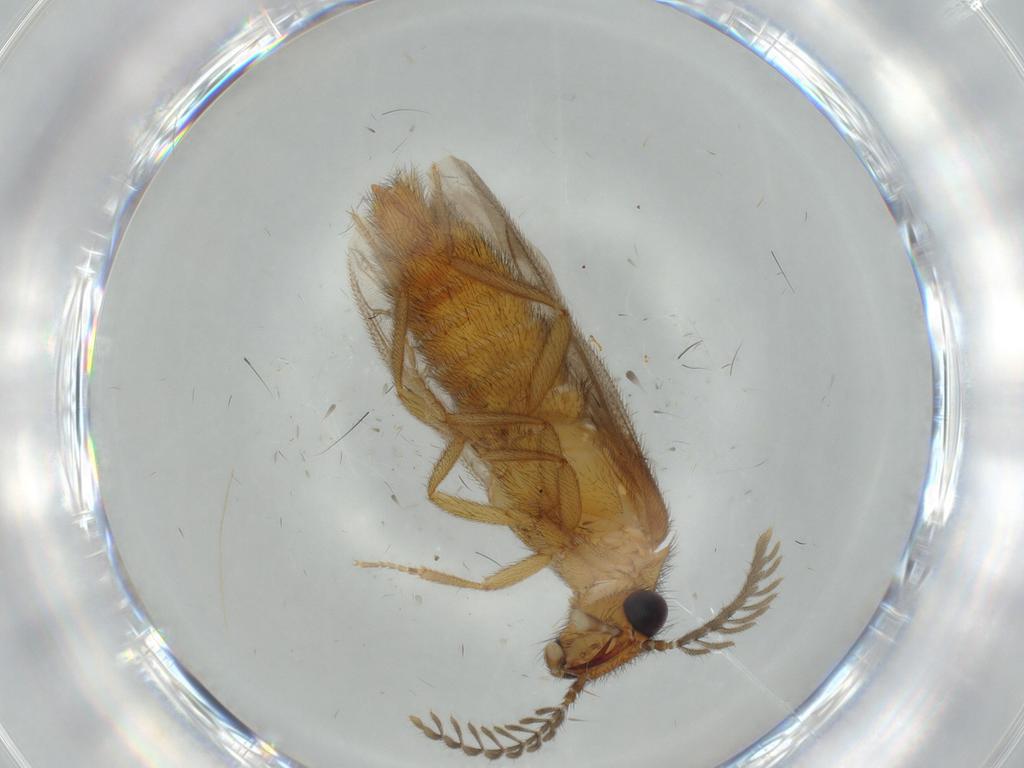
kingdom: Animalia
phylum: Arthropoda
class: Insecta
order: Coleoptera
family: Phengodidae
